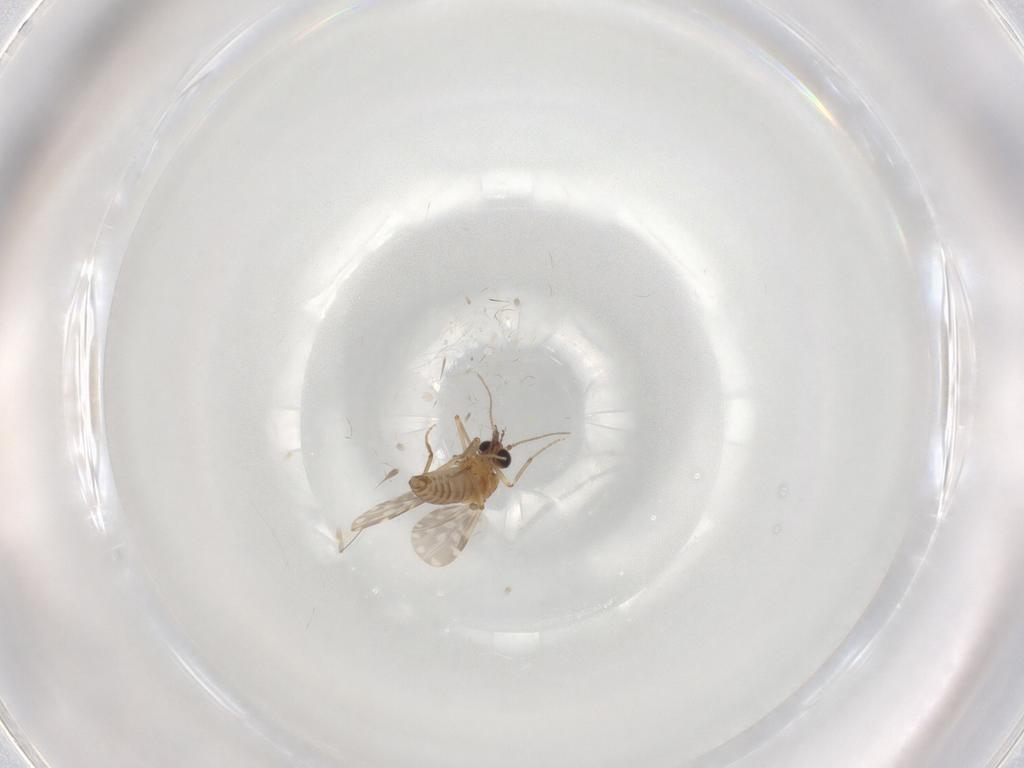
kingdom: Animalia
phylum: Arthropoda
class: Insecta
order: Diptera
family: Ceratopogonidae
